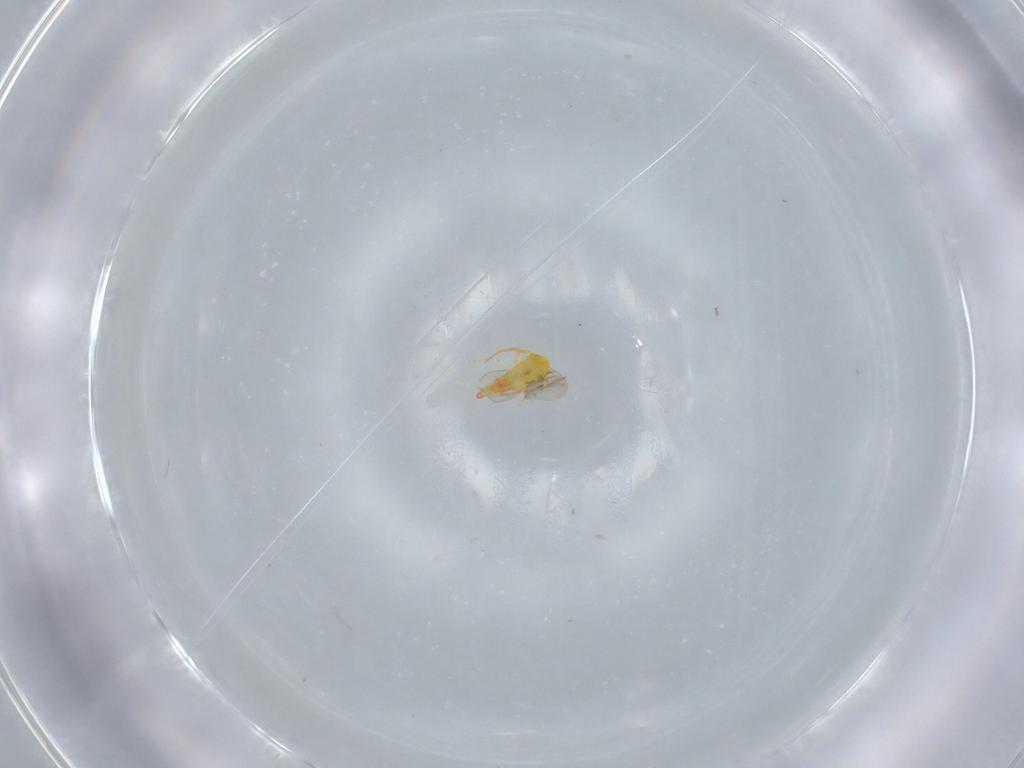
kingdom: Animalia
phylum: Arthropoda
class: Insecta
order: Hemiptera
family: Aleyrodidae
